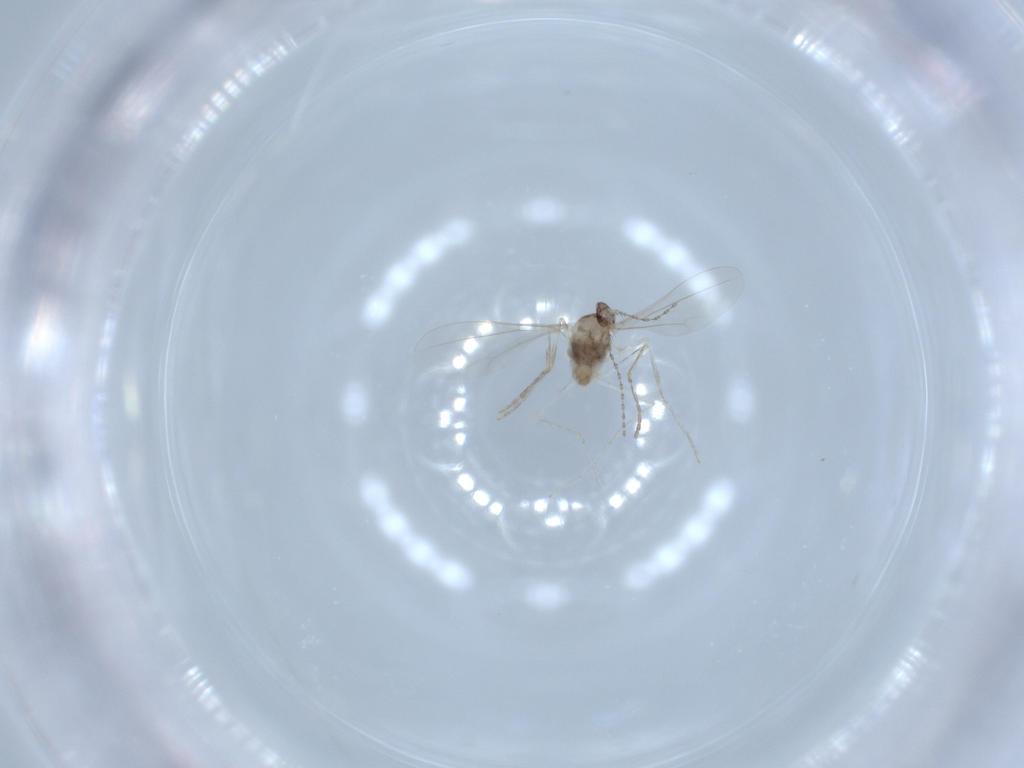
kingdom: Animalia
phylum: Arthropoda
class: Insecta
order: Diptera
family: Cecidomyiidae
